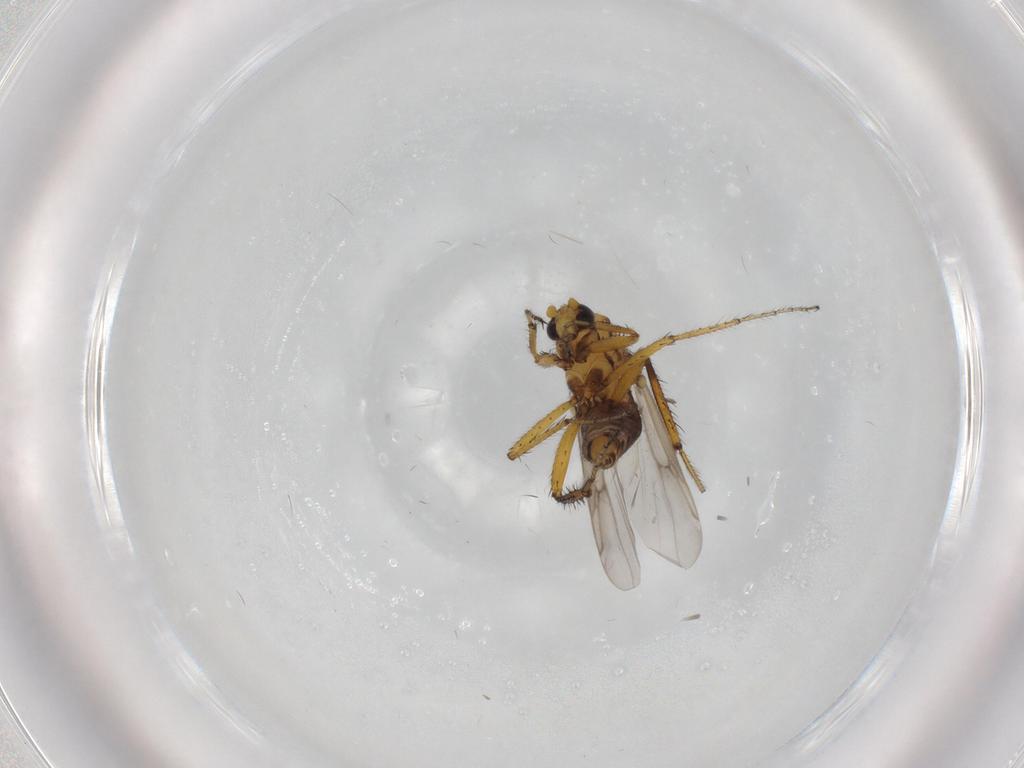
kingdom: Animalia
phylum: Arthropoda
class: Insecta
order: Diptera
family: Ceratopogonidae
